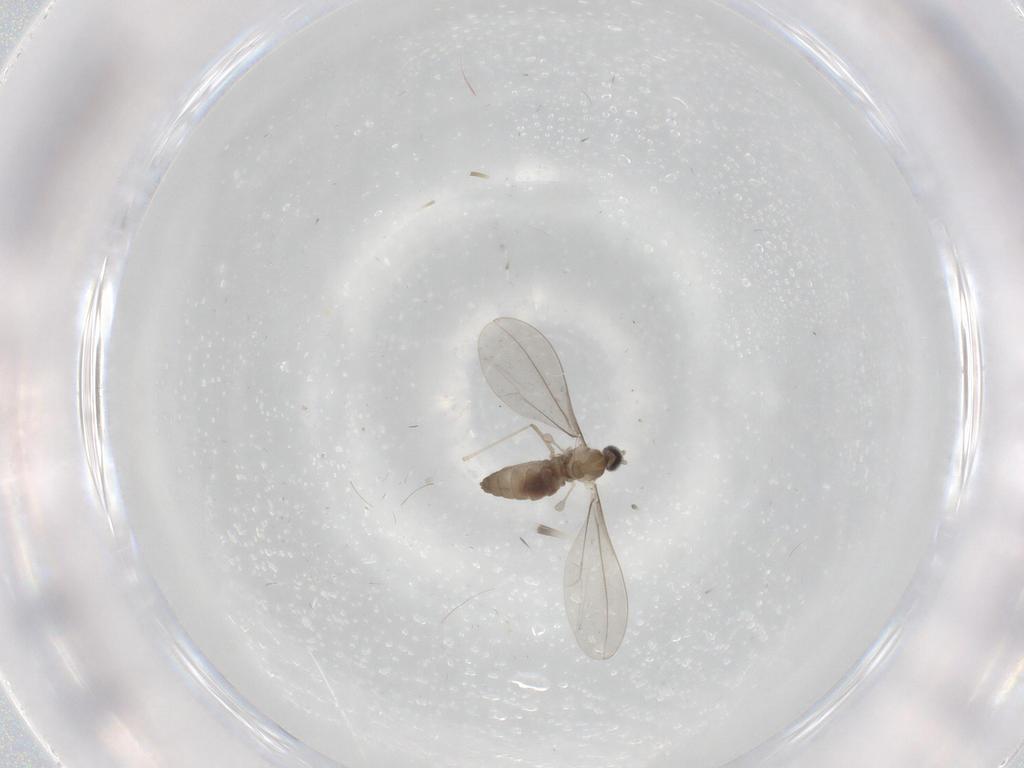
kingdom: Animalia
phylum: Arthropoda
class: Insecta
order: Diptera
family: Cecidomyiidae
